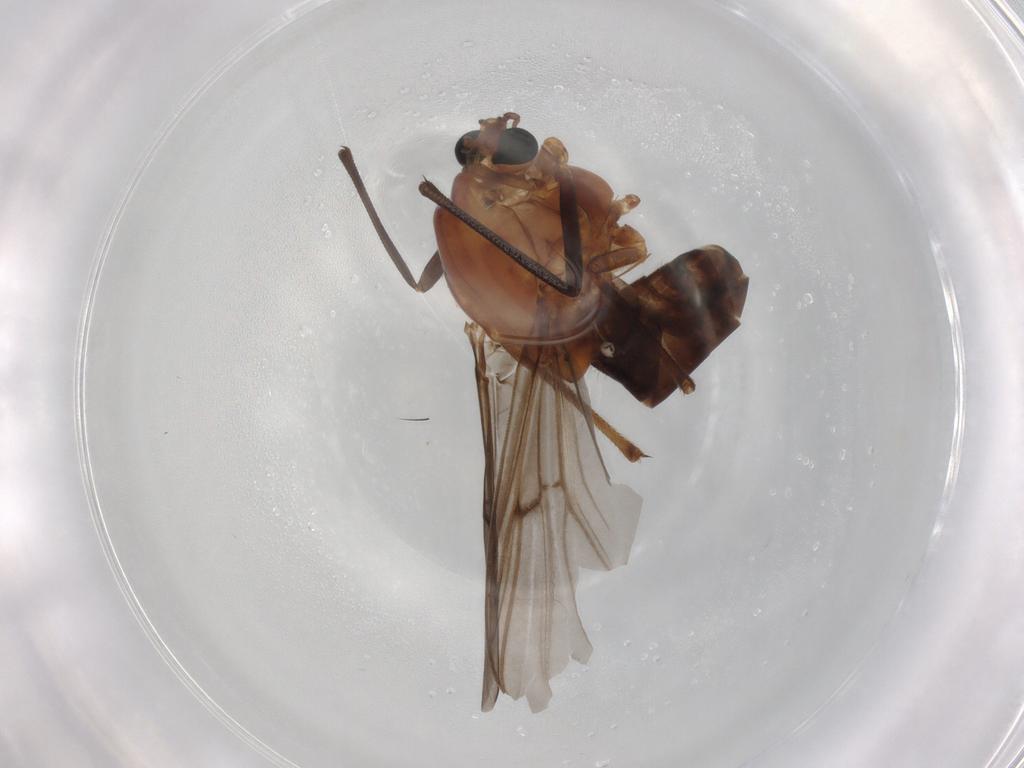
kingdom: Animalia
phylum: Arthropoda
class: Insecta
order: Diptera
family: Chironomidae
